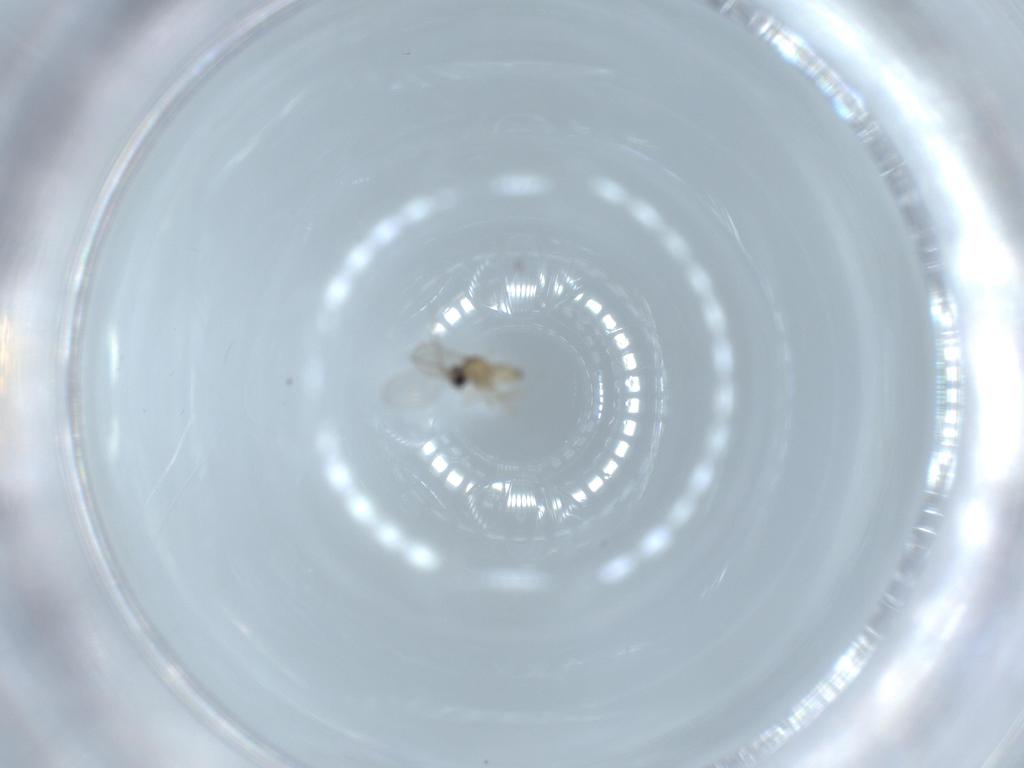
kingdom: Animalia
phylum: Arthropoda
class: Insecta
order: Diptera
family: Cecidomyiidae
